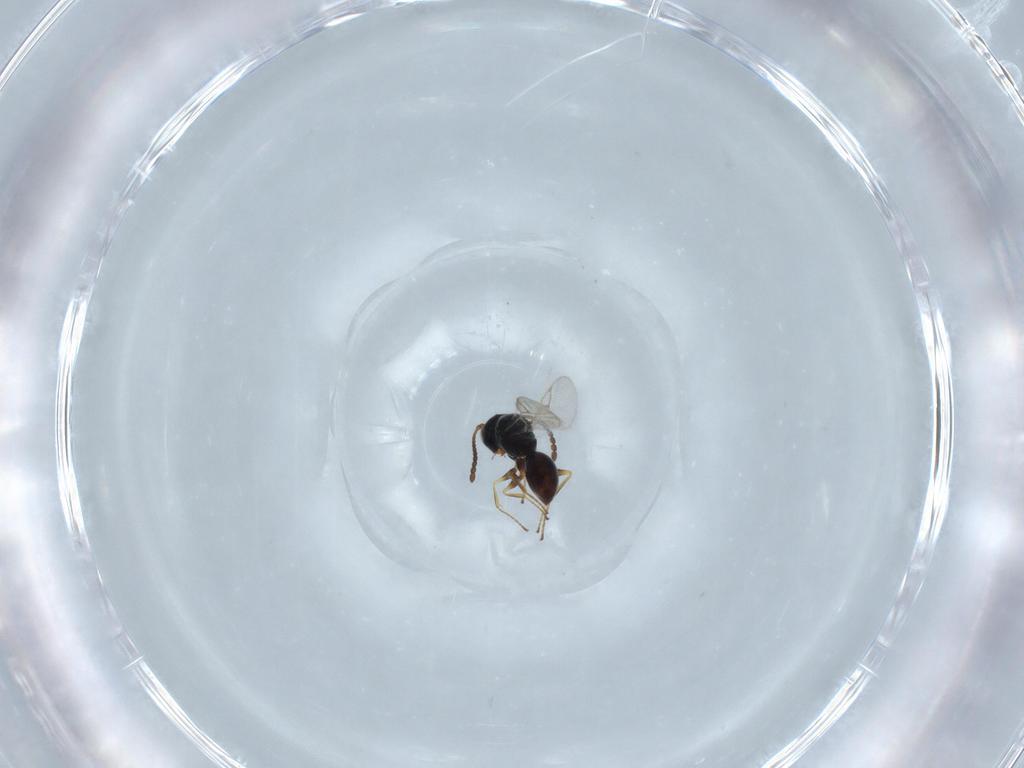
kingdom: Animalia
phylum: Arthropoda
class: Insecta
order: Hymenoptera
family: Figitidae
